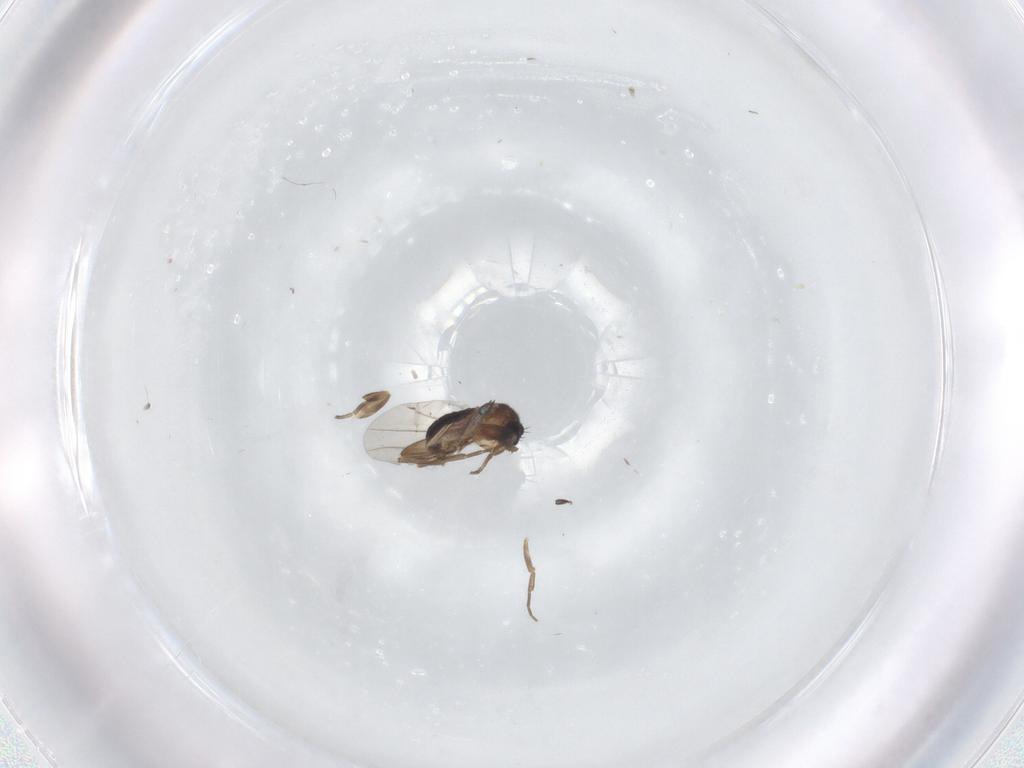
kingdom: Animalia
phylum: Arthropoda
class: Insecta
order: Diptera
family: Phoridae
